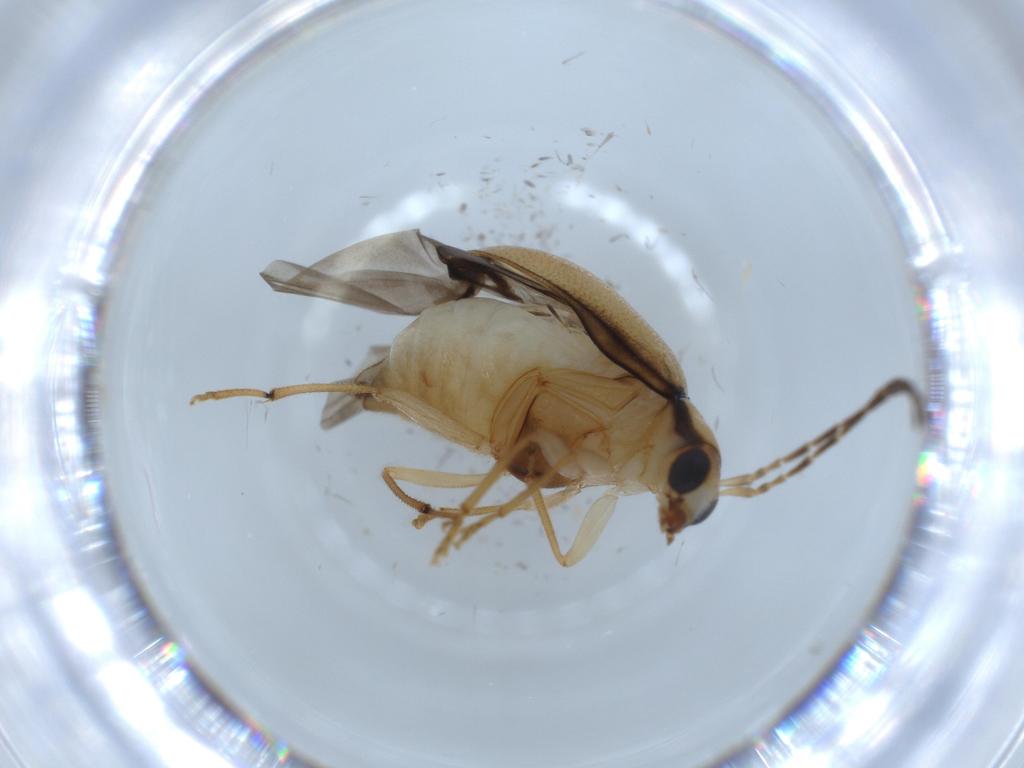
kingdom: Animalia
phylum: Arthropoda
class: Insecta
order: Coleoptera
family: Chrysomelidae
